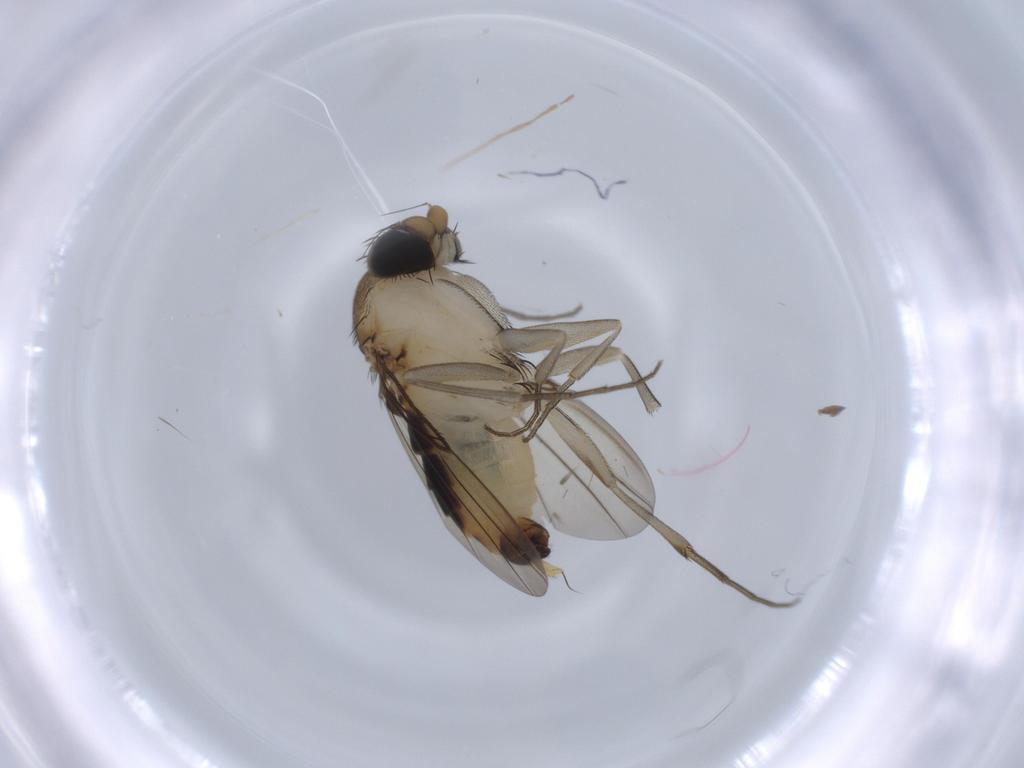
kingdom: Animalia
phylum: Arthropoda
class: Insecta
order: Diptera
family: Phoridae
